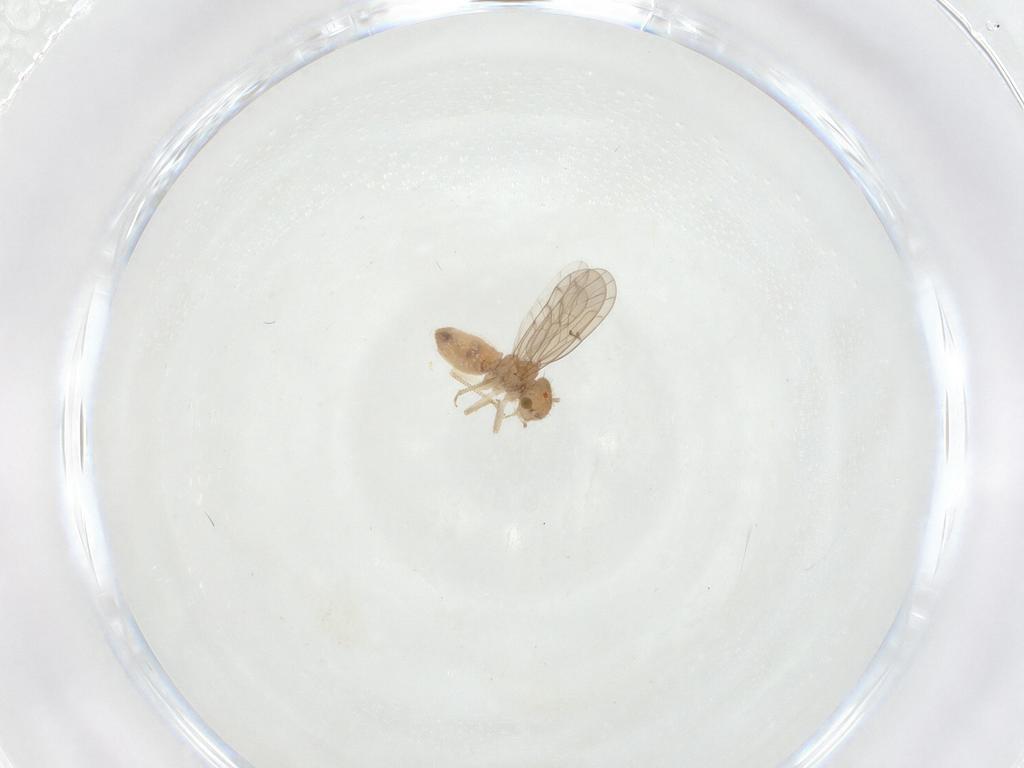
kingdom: Animalia
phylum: Arthropoda
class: Insecta
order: Psocodea
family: Ectopsocidae
